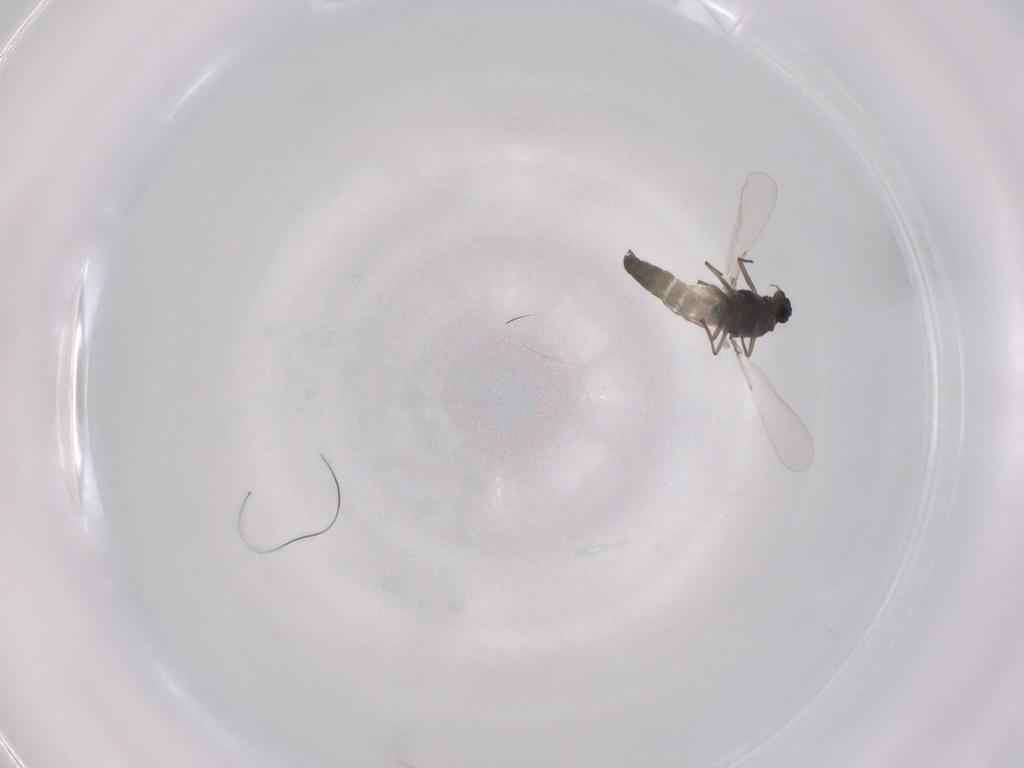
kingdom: Animalia
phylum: Arthropoda
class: Insecta
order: Diptera
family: Chironomidae
